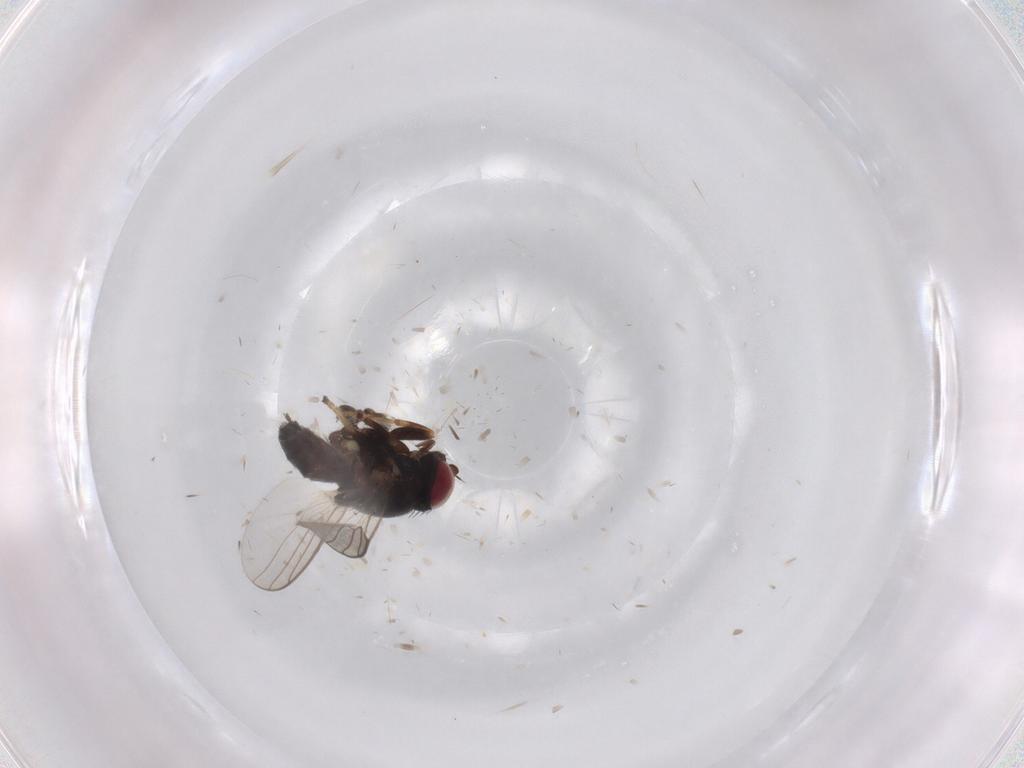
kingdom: Animalia
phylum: Arthropoda
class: Insecta
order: Diptera
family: Chloropidae
